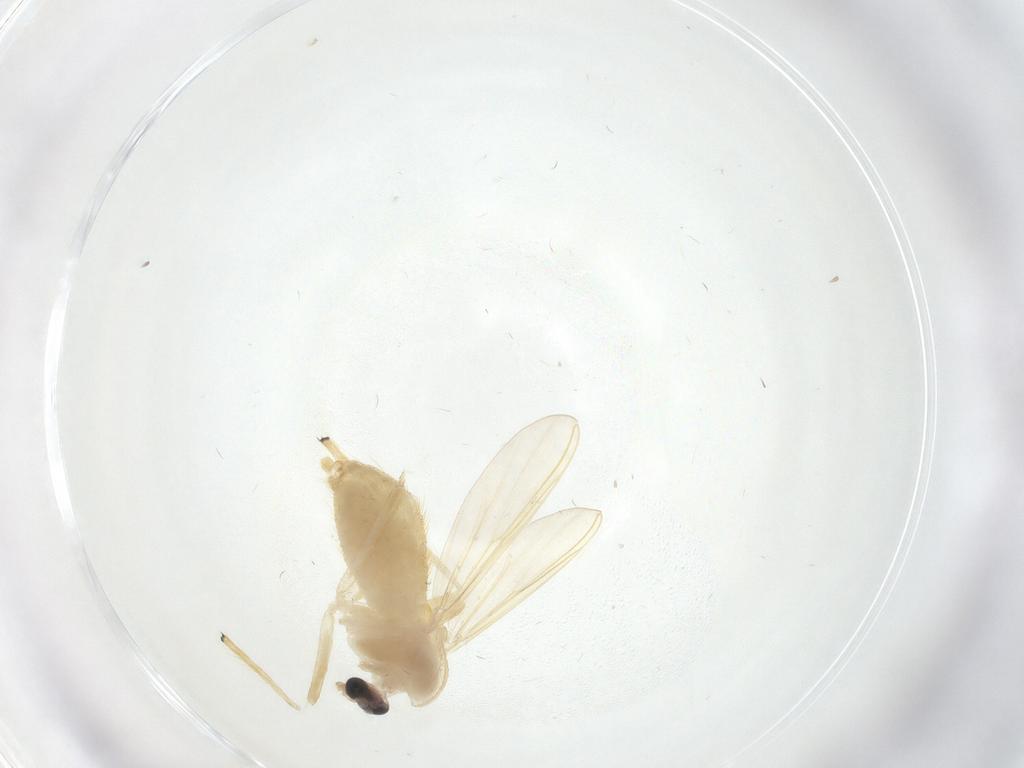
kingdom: Animalia
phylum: Arthropoda
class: Insecta
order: Diptera
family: Chironomidae
